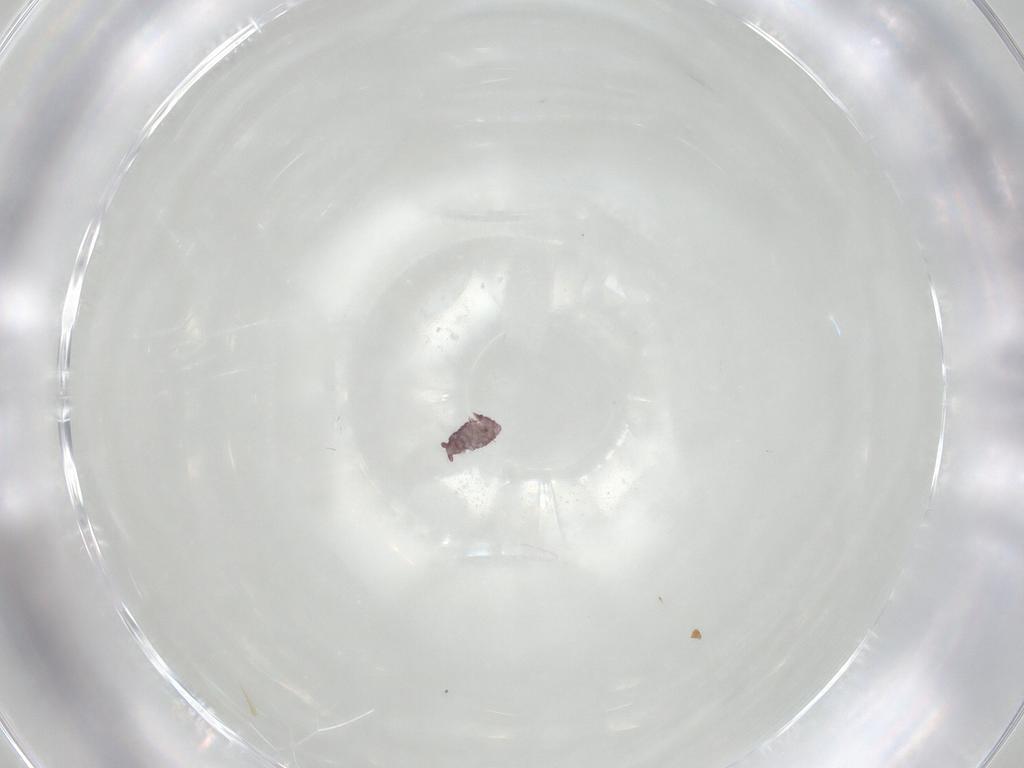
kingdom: Animalia
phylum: Arthropoda
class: Collembola
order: Poduromorpha
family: Hypogastruridae
